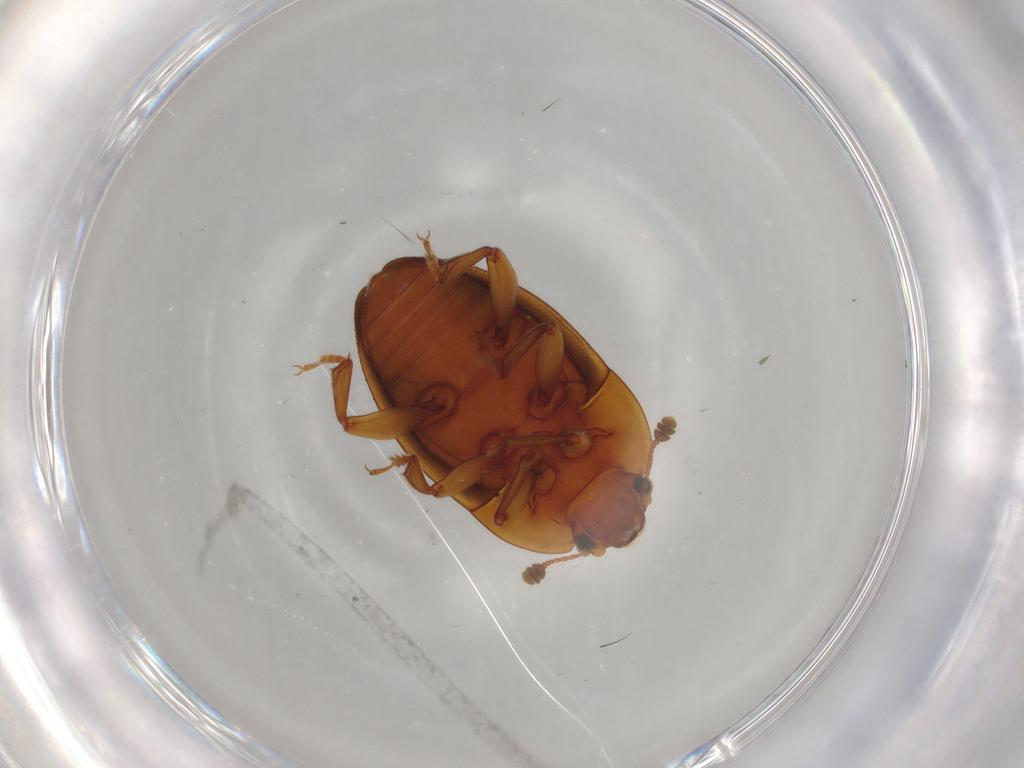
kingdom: Animalia
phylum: Arthropoda
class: Insecta
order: Coleoptera
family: Nitidulidae
